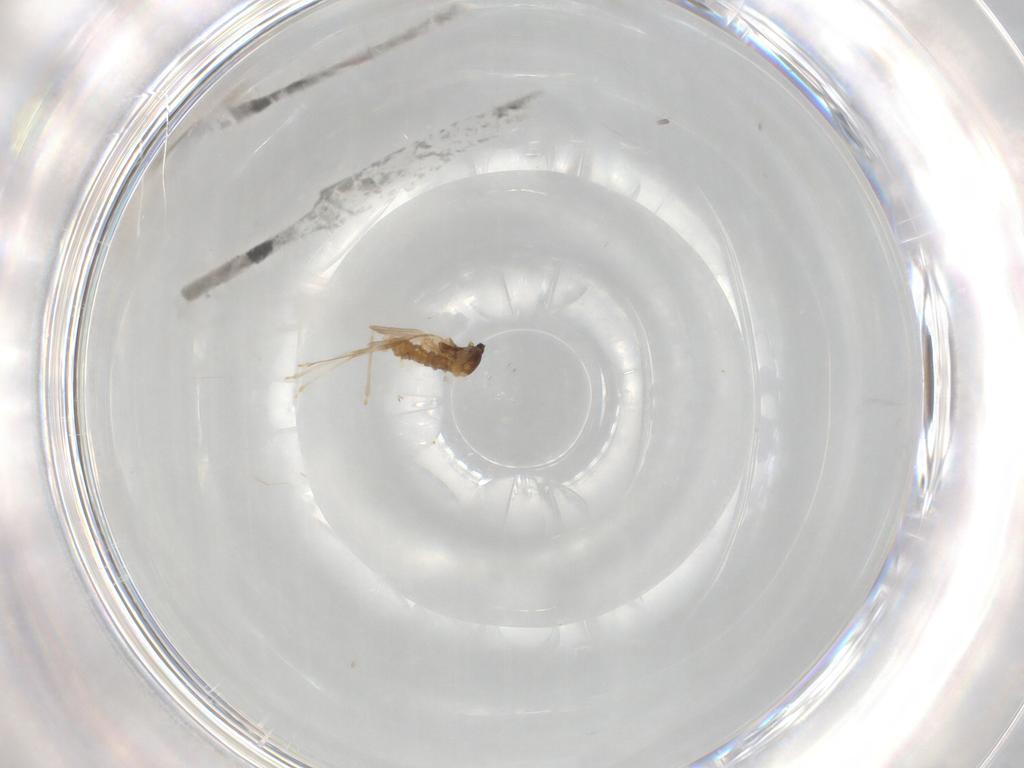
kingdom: Animalia
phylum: Arthropoda
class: Insecta
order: Diptera
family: Cecidomyiidae
